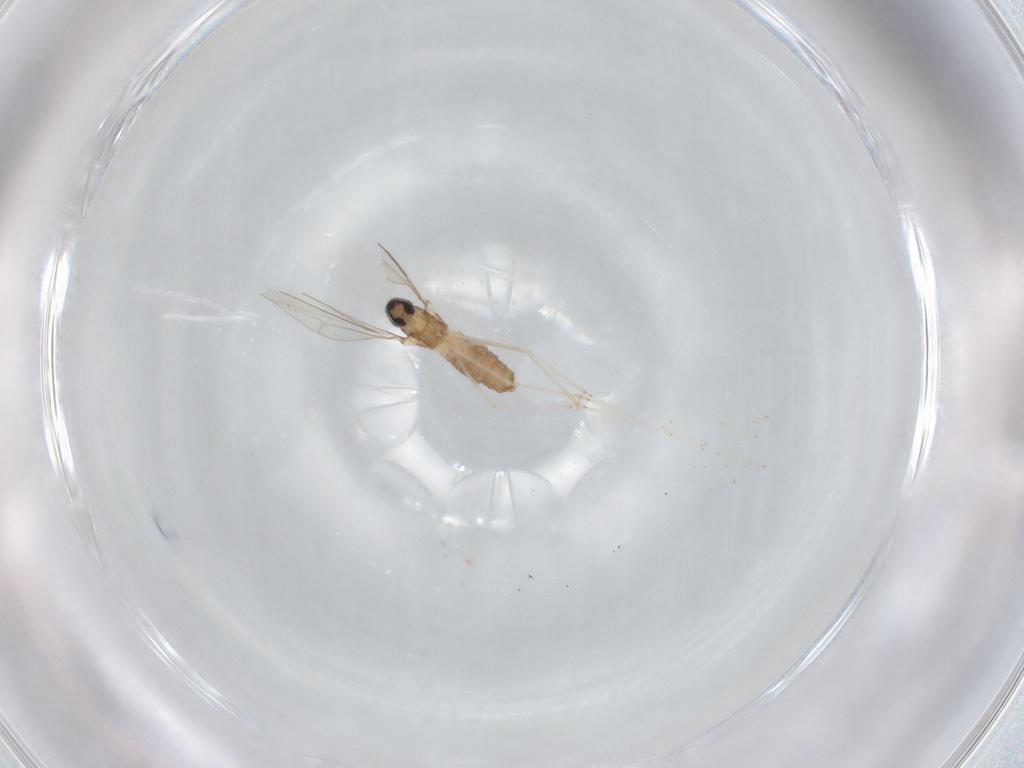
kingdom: Animalia
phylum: Arthropoda
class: Insecta
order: Diptera
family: Cecidomyiidae
